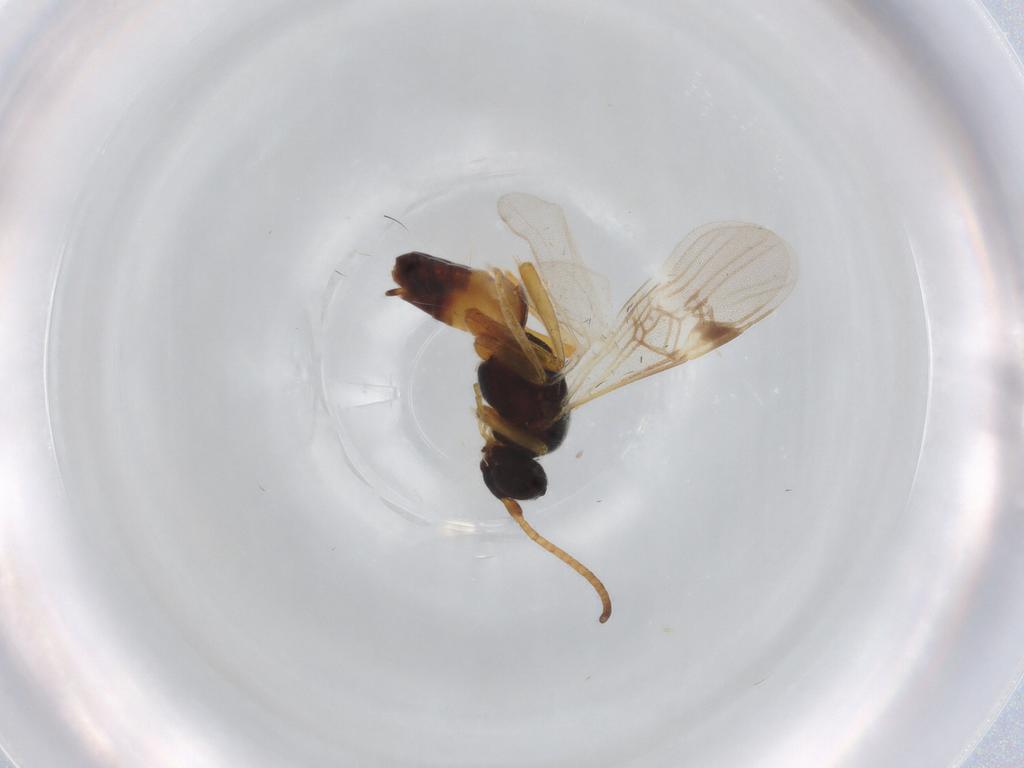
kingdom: Animalia
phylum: Arthropoda
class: Insecta
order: Hymenoptera
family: Braconidae
